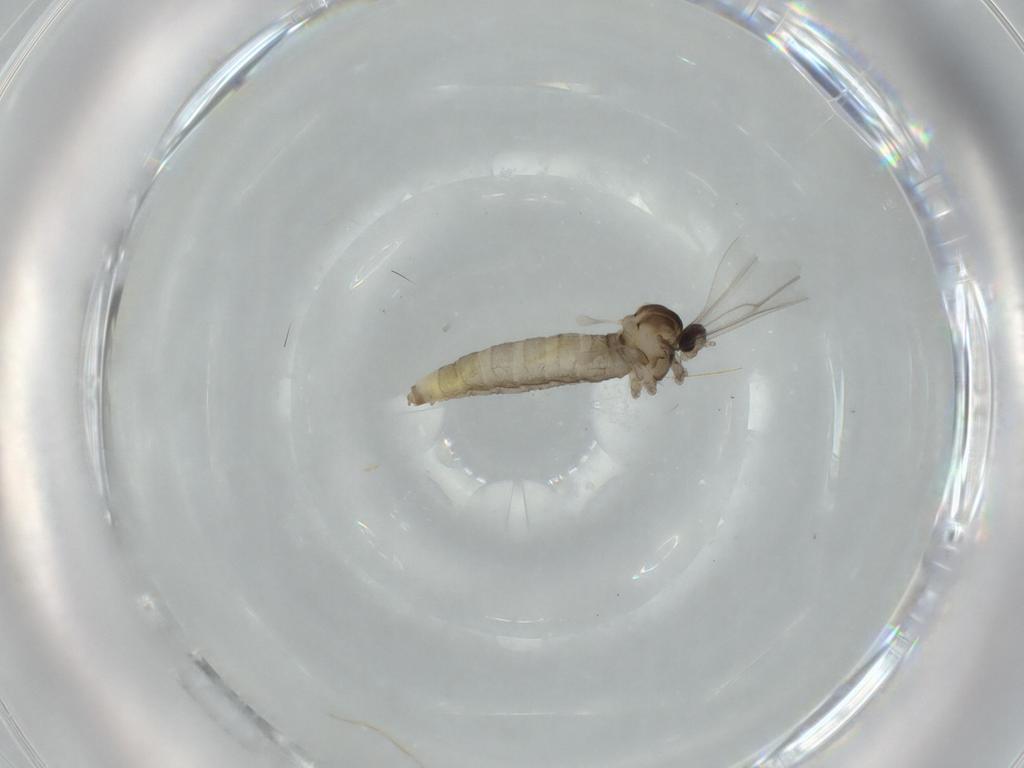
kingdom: Animalia
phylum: Arthropoda
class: Insecta
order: Diptera
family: Cecidomyiidae
